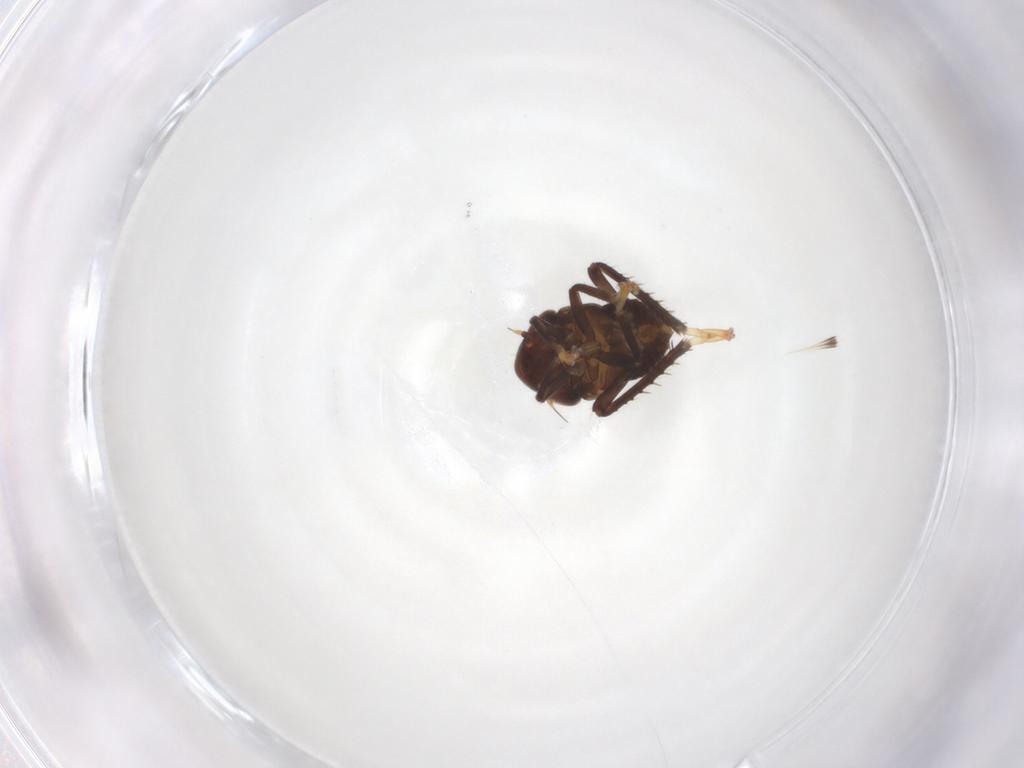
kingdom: Animalia
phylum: Arthropoda
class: Insecta
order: Hemiptera
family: Cicadellidae
